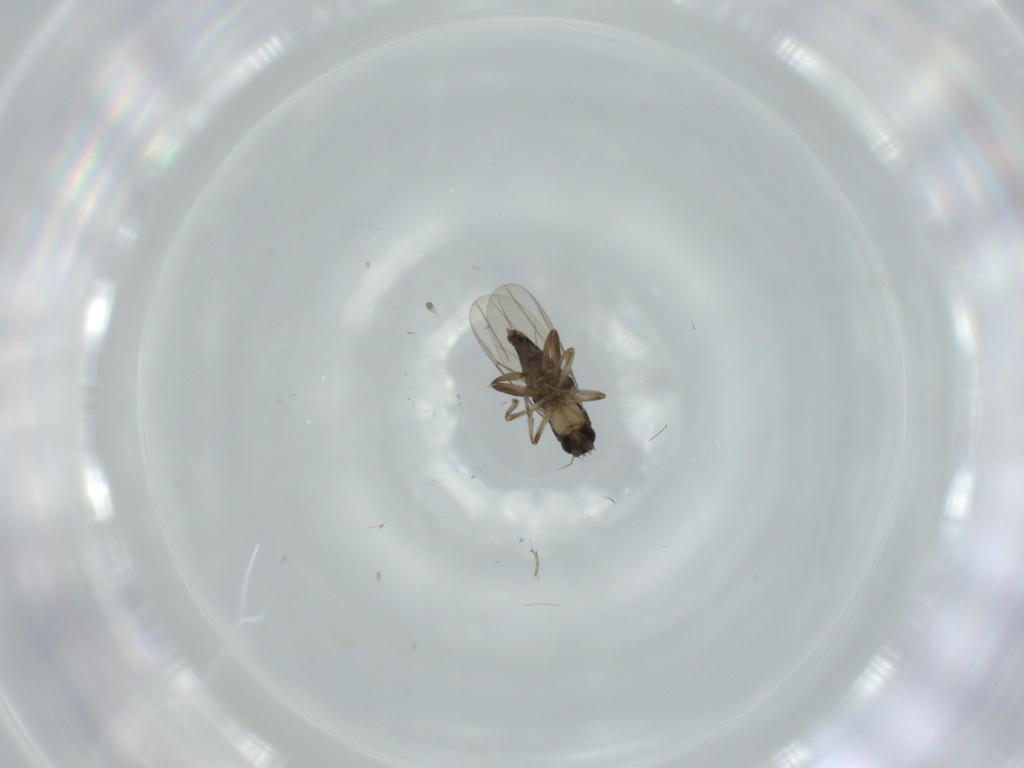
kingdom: Animalia
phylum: Arthropoda
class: Insecta
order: Diptera
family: Phoridae
